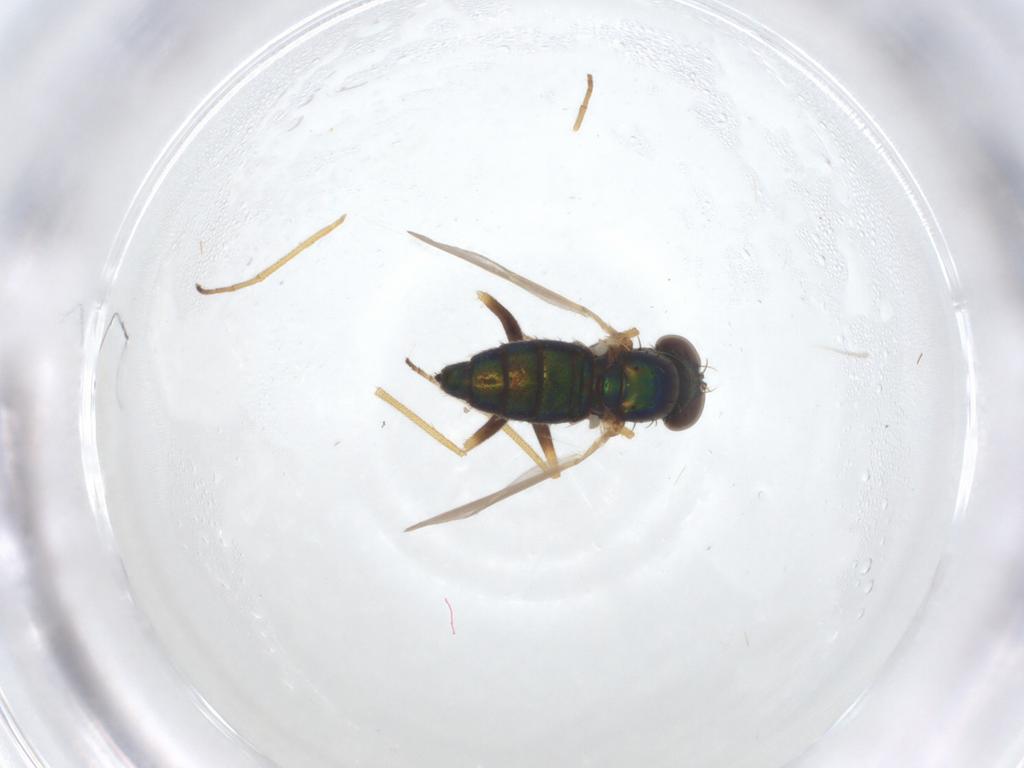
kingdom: Animalia
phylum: Arthropoda
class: Insecta
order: Diptera
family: Dolichopodidae
